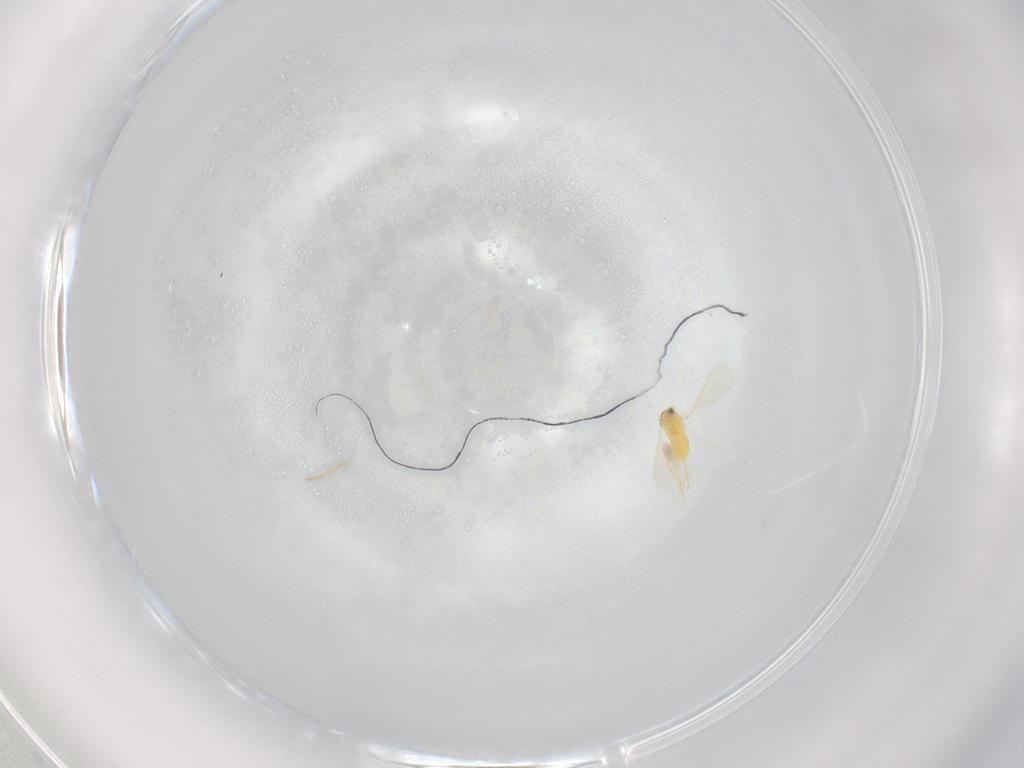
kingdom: Animalia
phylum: Arthropoda
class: Insecta
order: Hymenoptera
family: Aphelinidae
